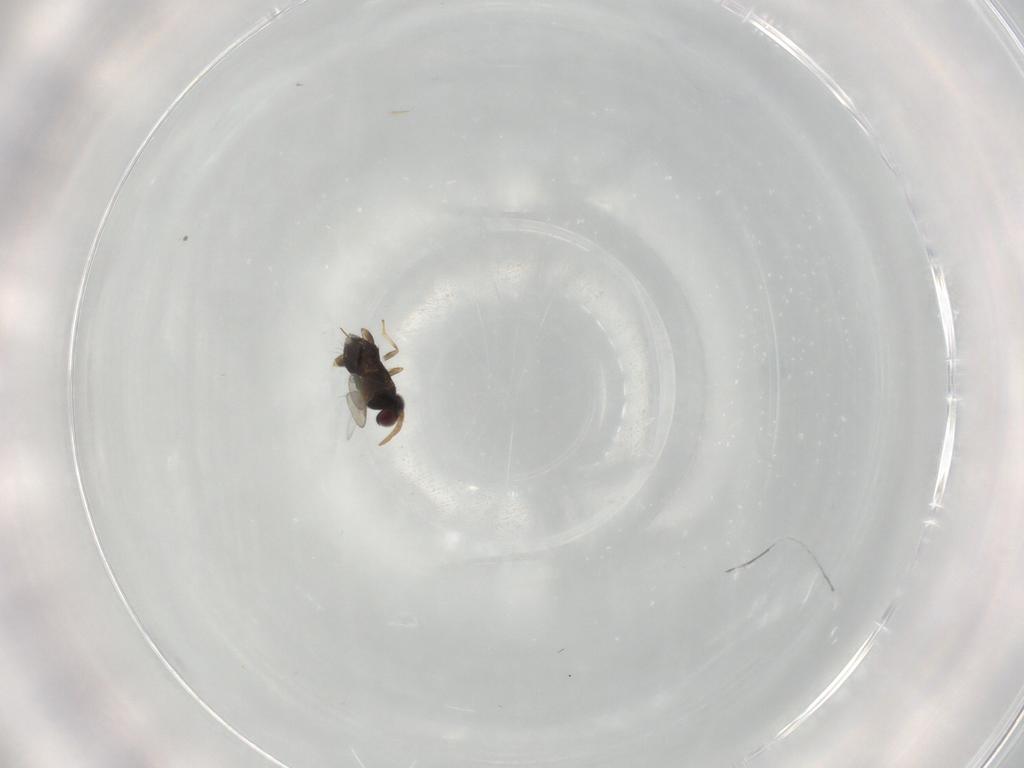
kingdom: Animalia
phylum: Arthropoda
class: Insecta
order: Hymenoptera
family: Aphelinidae
